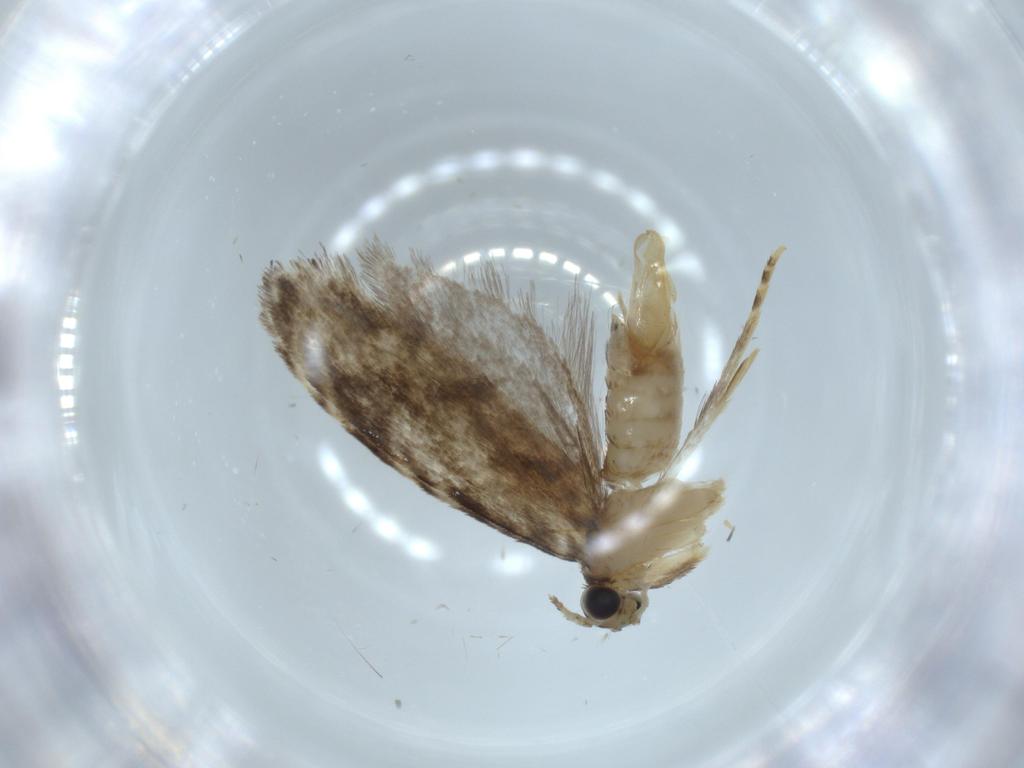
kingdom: Animalia
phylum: Arthropoda
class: Insecta
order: Lepidoptera
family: Tineidae
